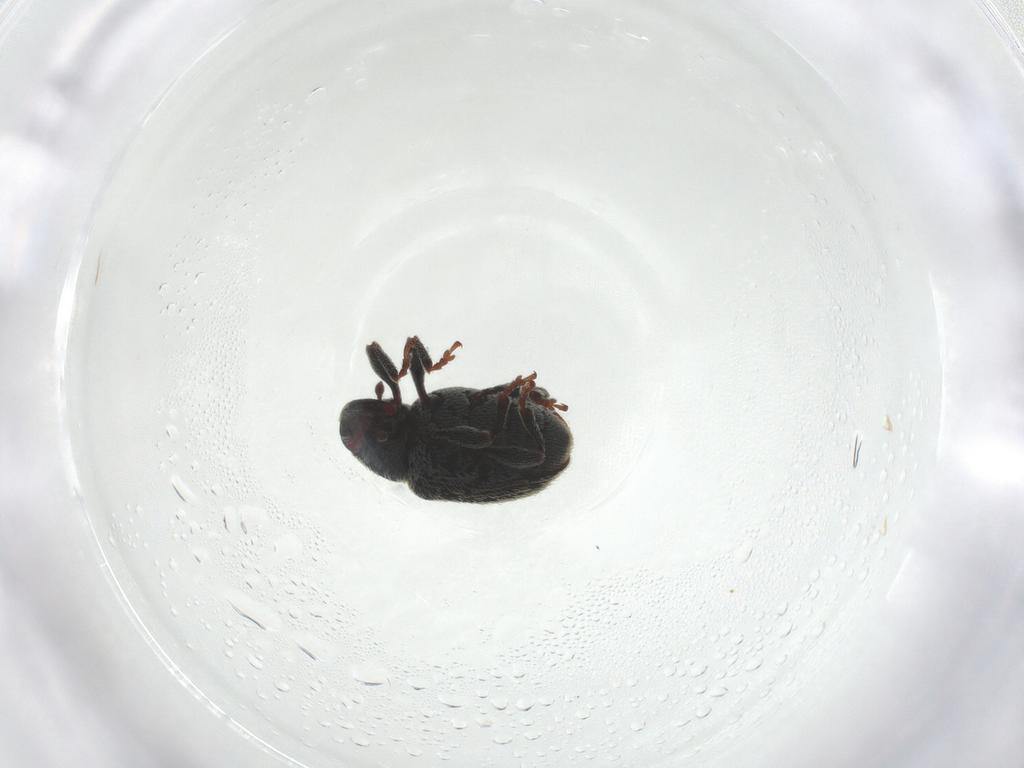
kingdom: Animalia
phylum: Arthropoda
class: Insecta
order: Coleoptera
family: Curculionidae
